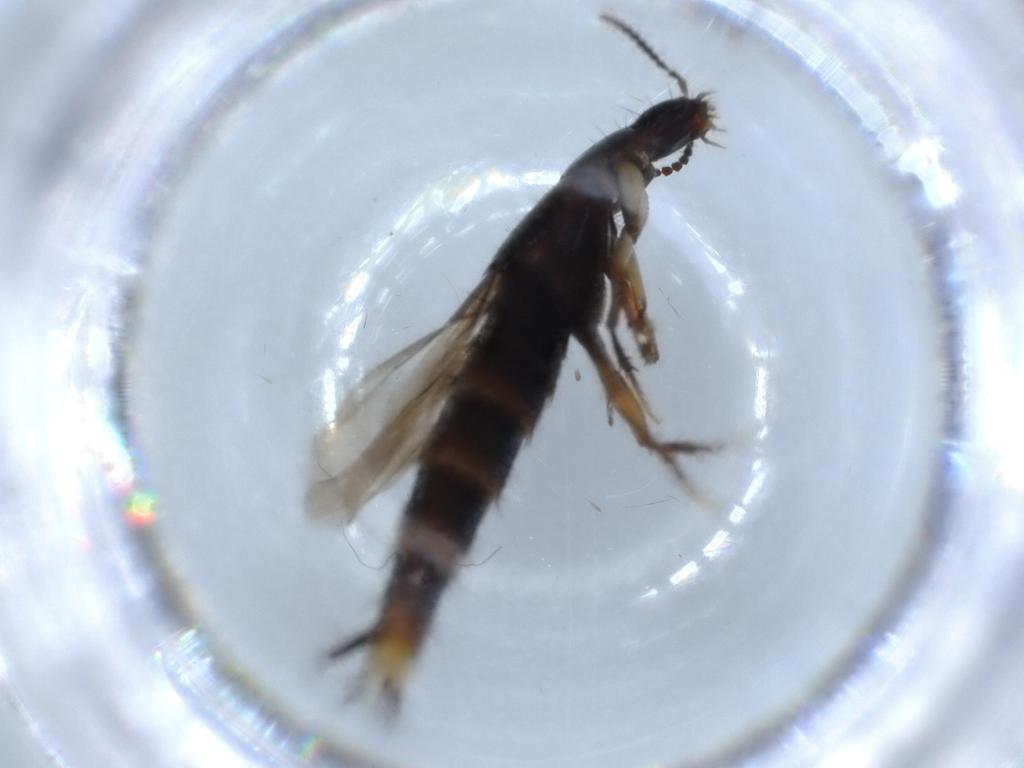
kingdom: Animalia
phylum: Arthropoda
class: Insecta
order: Coleoptera
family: Staphylinidae
